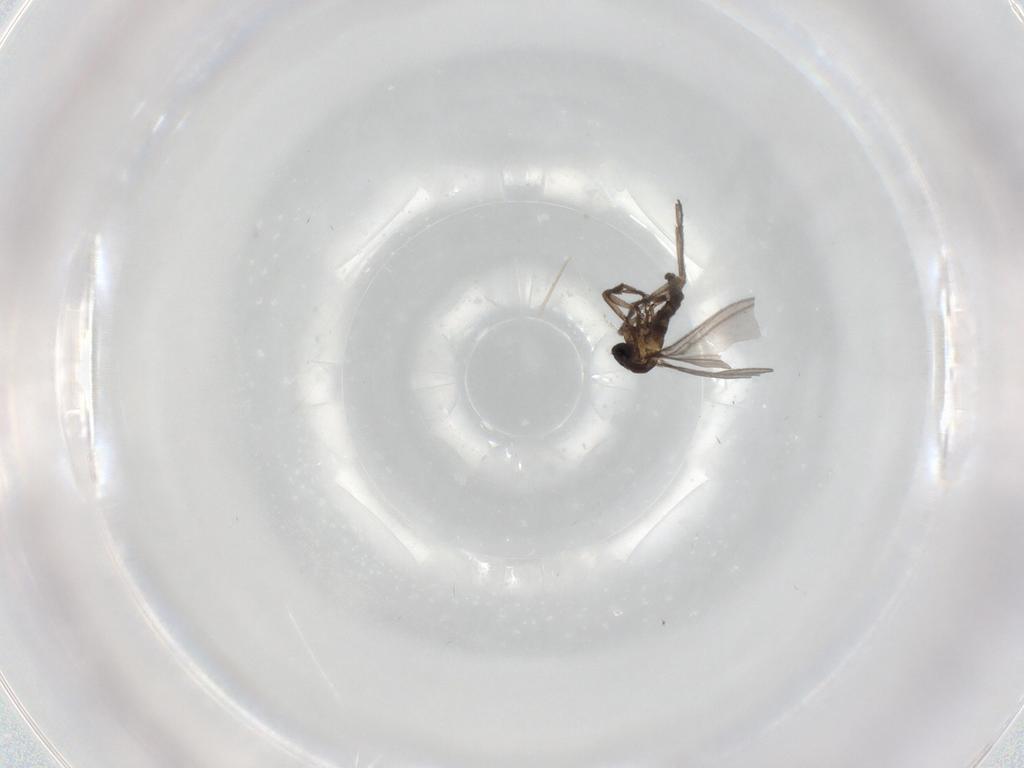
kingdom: Animalia
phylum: Arthropoda
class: Insecta
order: Diptera
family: Sciaridae
